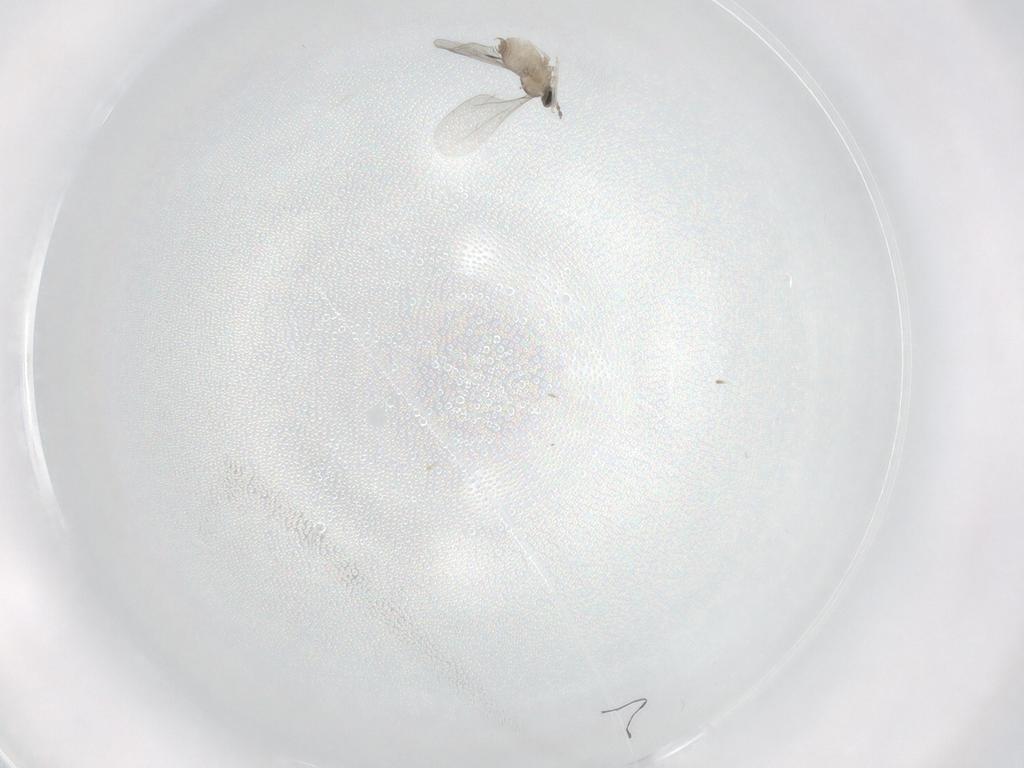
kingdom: Animalia
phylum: Arthropoda
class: Insecta
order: Diptera
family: Cecidomyiidae
